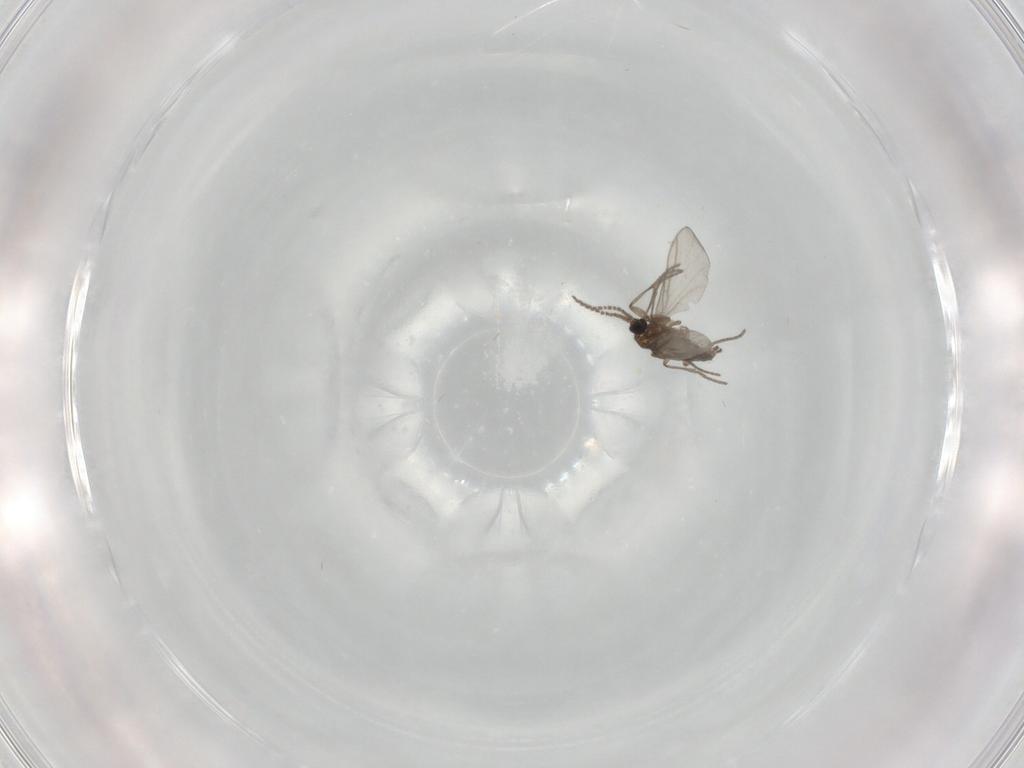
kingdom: Animalia
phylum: Arthropoda
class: Insecta
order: Diptera
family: Sciaridae
